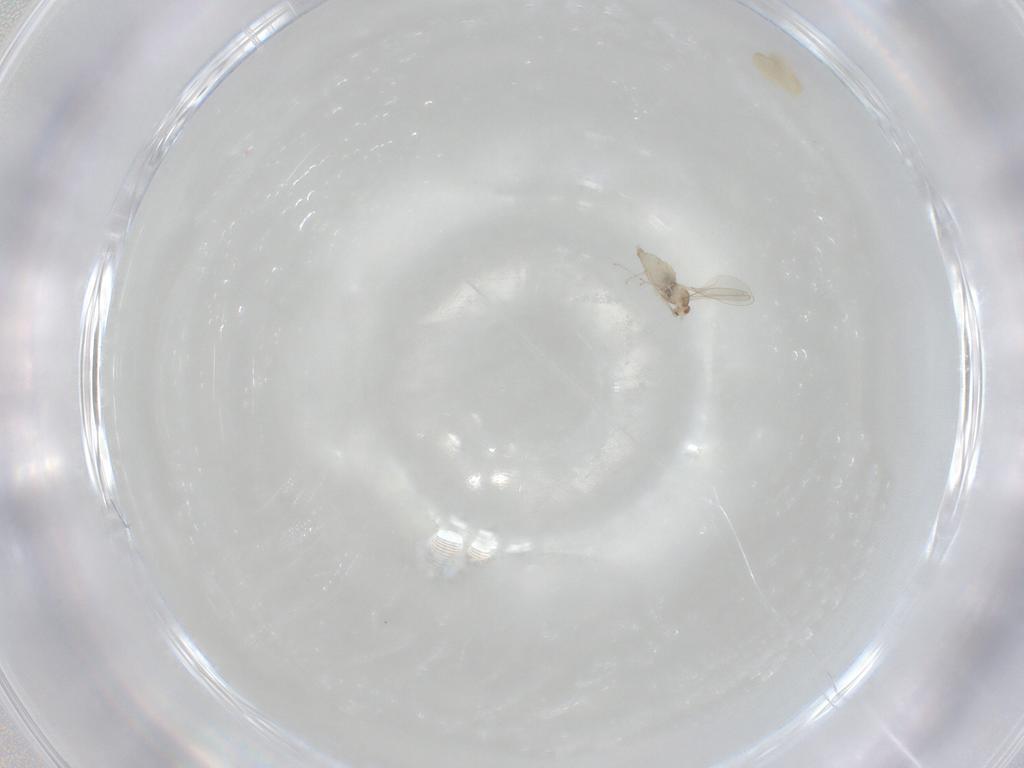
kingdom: Animalia
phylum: Arthropoda
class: Insecta
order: Diptera
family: Cecidomyiidae
